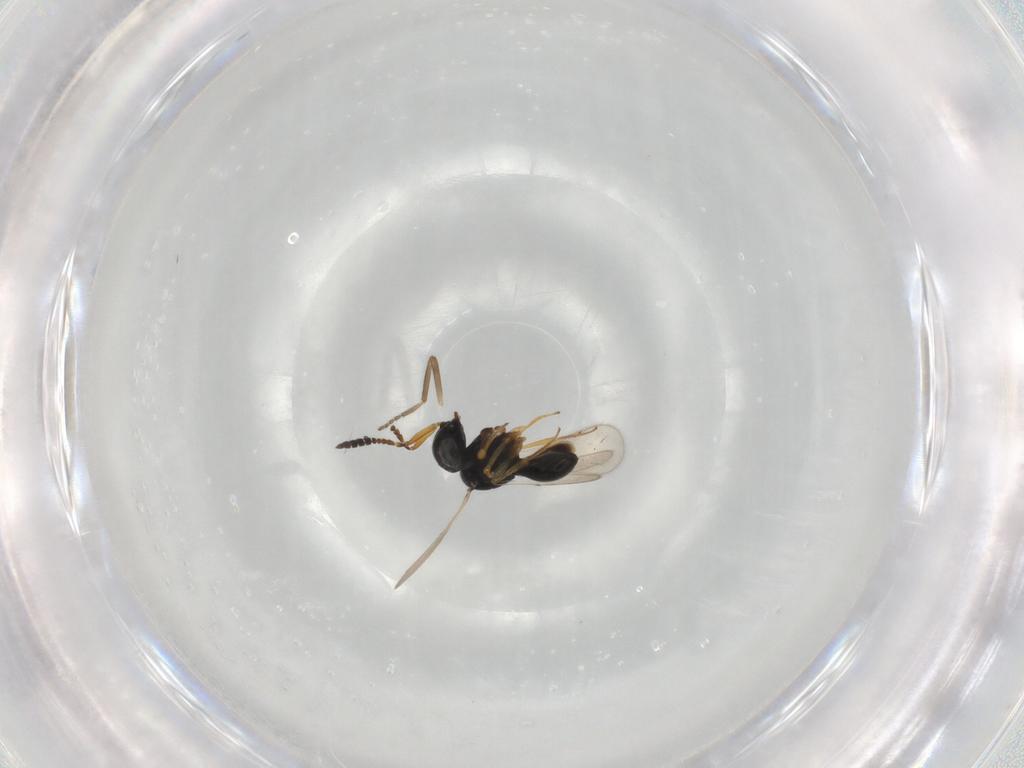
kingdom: Animalia
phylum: Arthropoda
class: Insecta
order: Hymenoptera
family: Scelionidae
